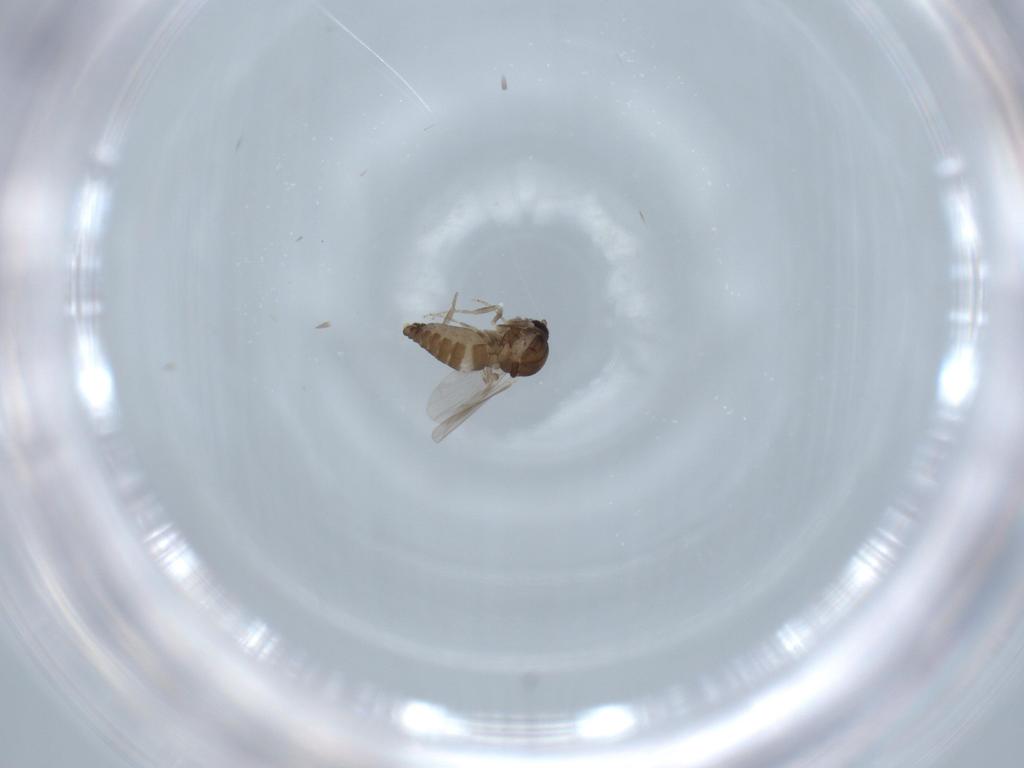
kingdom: Animalia
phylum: Arthropoda
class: Insecta
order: Diptera
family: Ceratopogonidae
